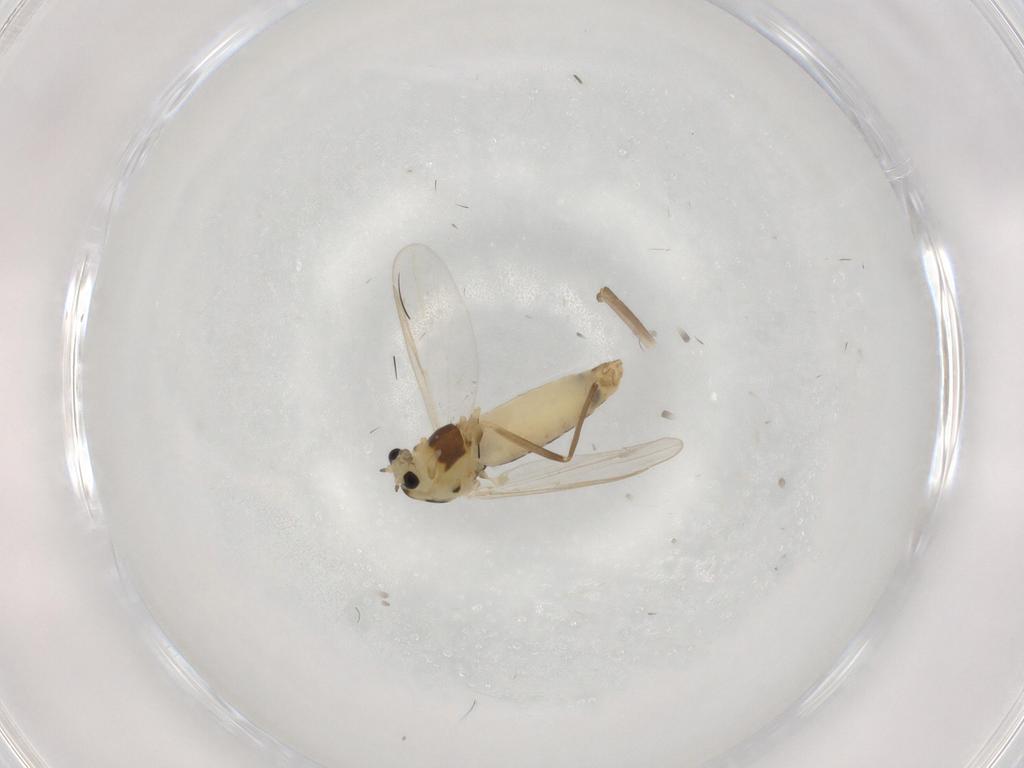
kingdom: Animalia
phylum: Arthropoda
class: Insecta
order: Diptera
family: Chironomidae
